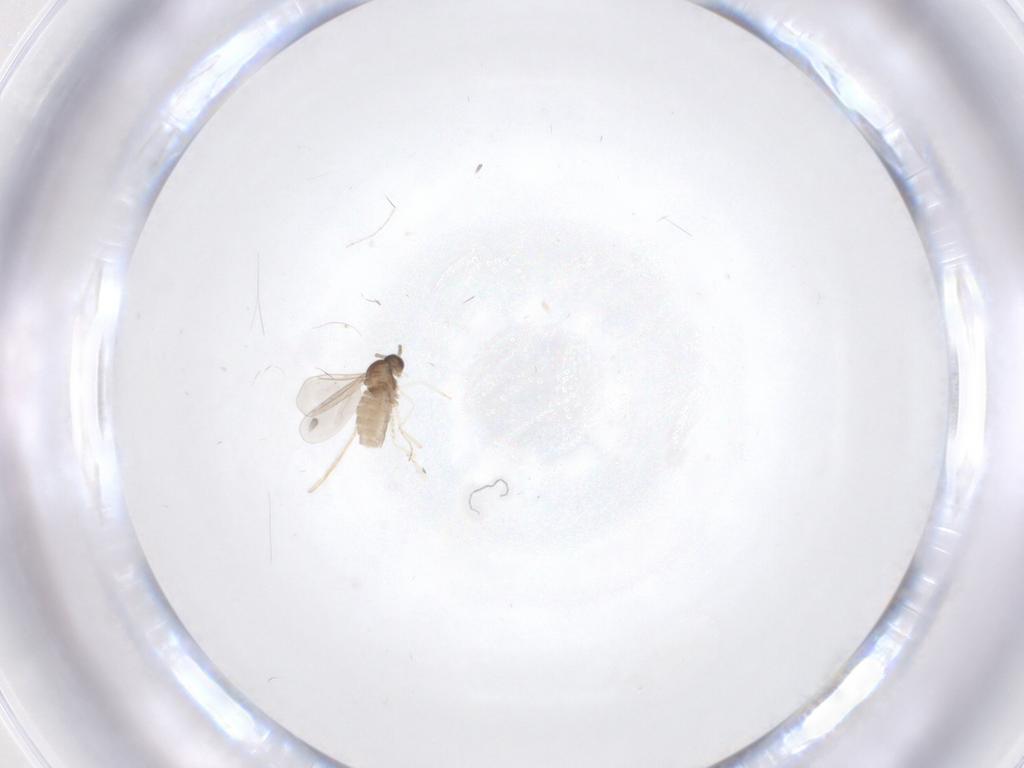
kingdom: Animalia
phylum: Arthropoda
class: Insecta
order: Diptera
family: Cecidomyiidae
